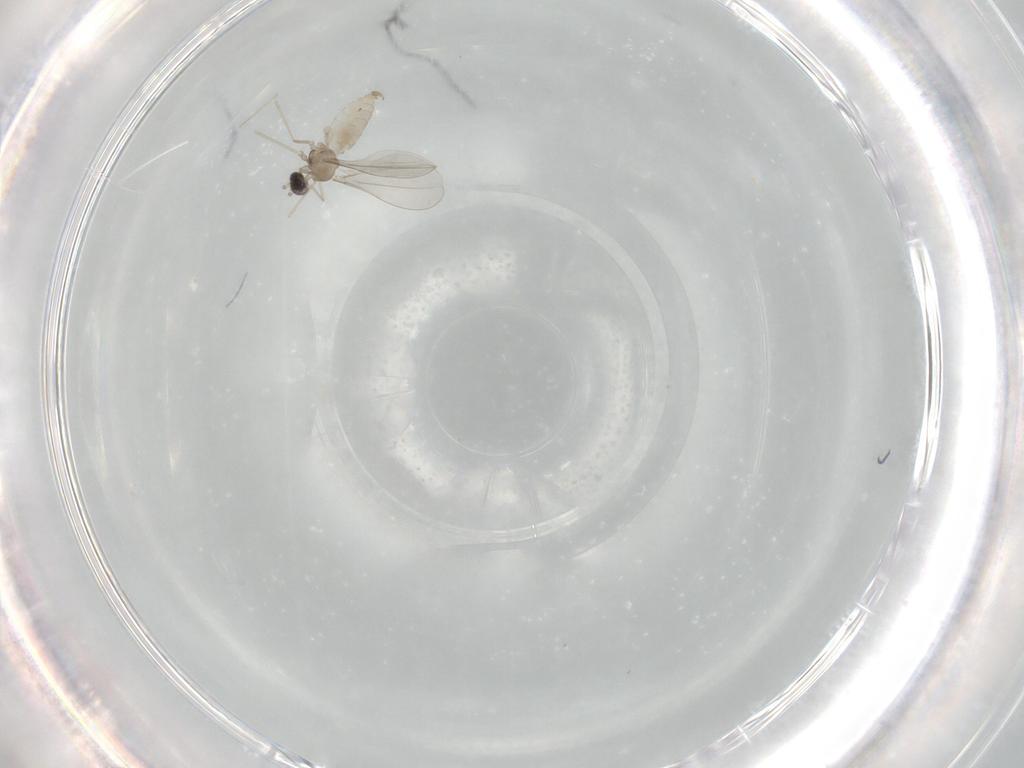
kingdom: Animalia
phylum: Arthropoda
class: Insecta
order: Diptera
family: Cecidomyiidae
